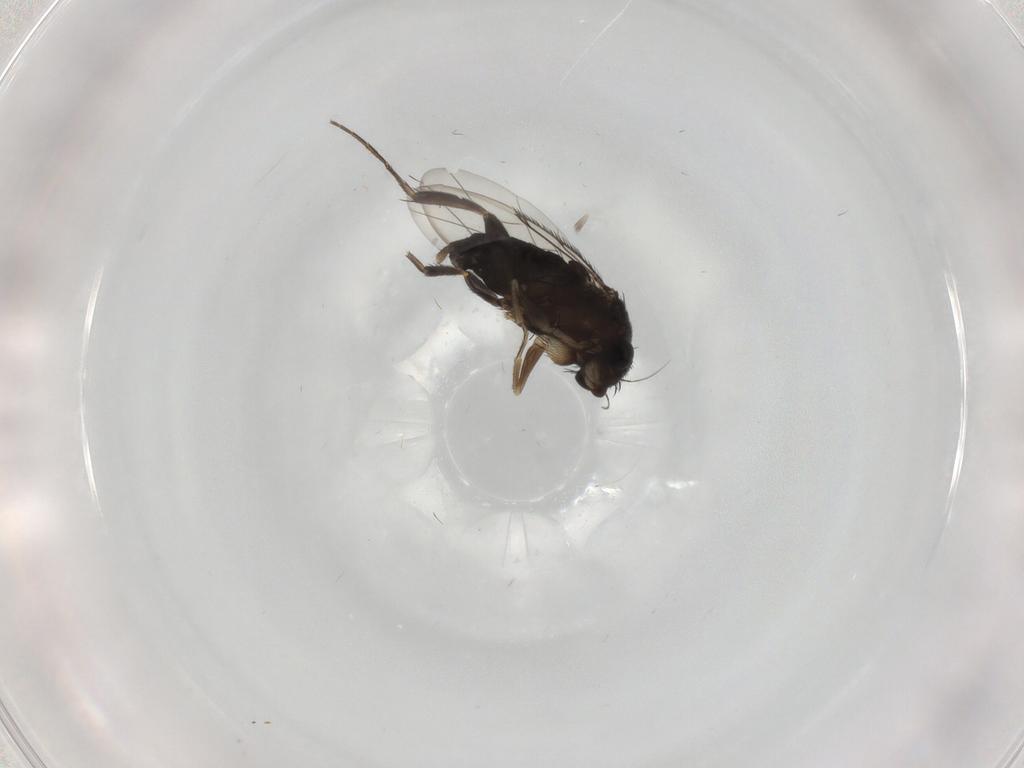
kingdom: Animalia
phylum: Arthropoda
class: Insecta
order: Diptera
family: Phoridae
